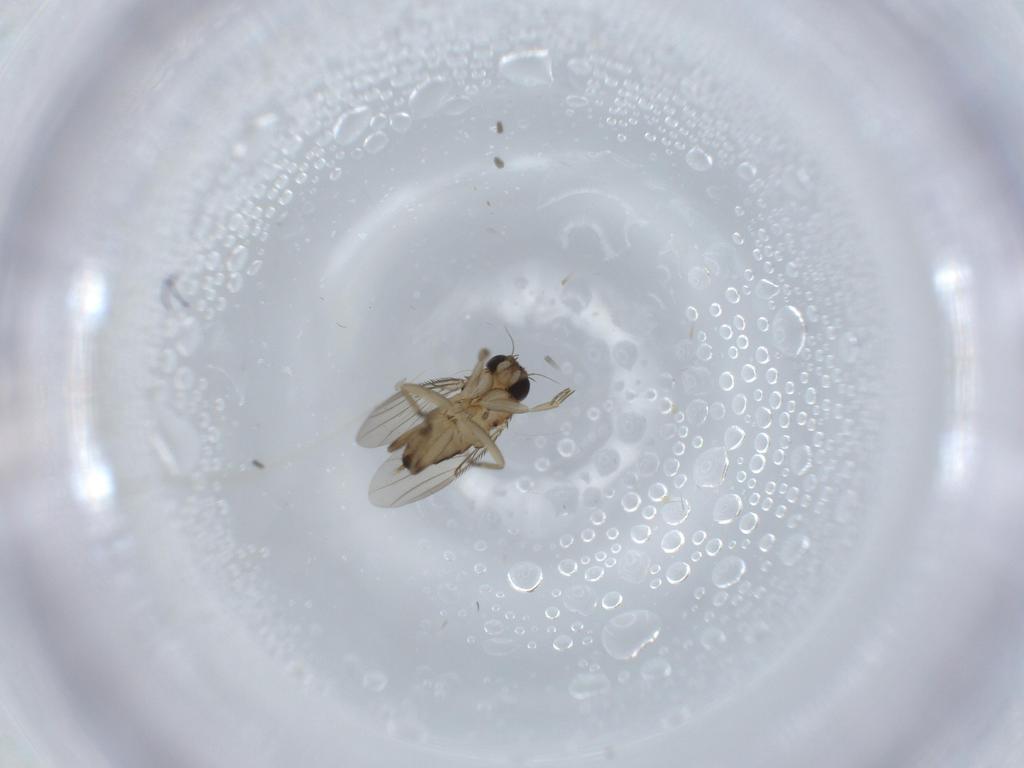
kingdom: Animalia
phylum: Arthropoda
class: Insecta
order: Diptera
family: Phoridae
